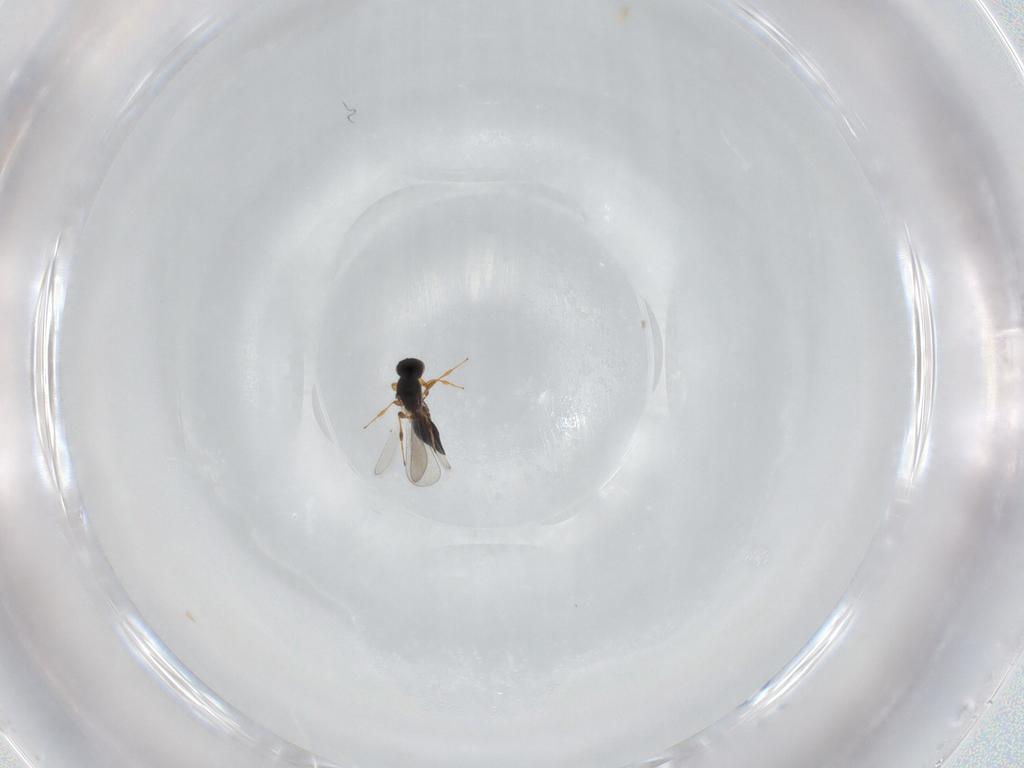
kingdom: Animalia
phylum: Arthropoda
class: Insecta
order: Hymenoptera
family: Platygastridae
